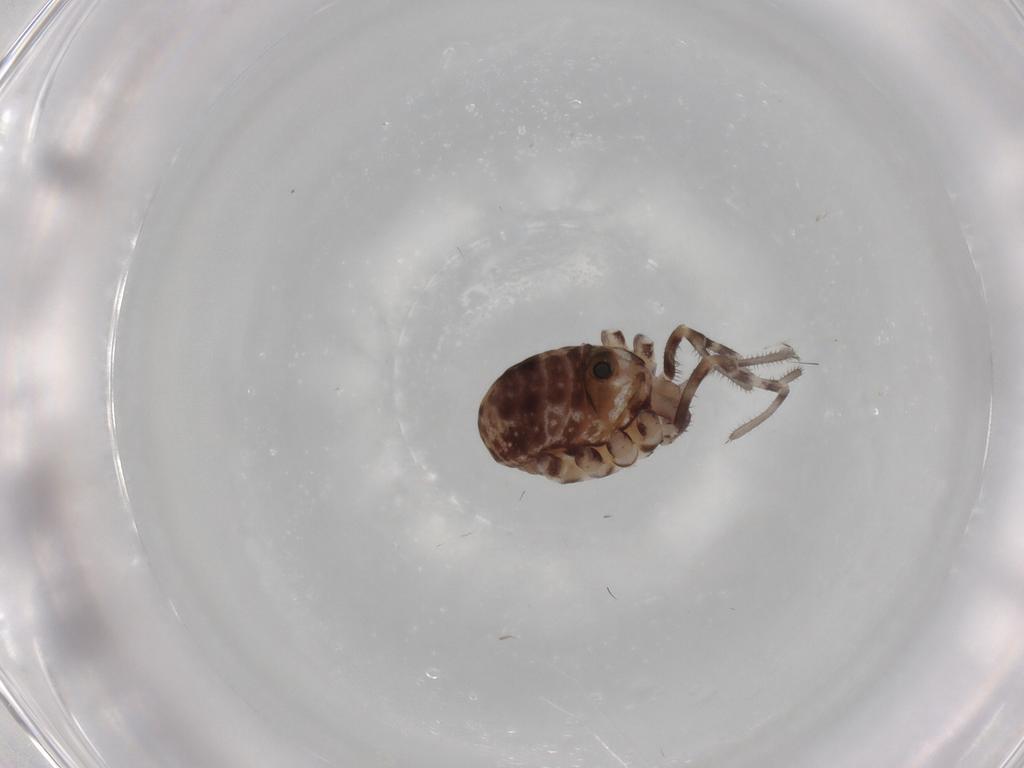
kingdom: Animalia
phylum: Arthropoda
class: Arachnida
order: Opiliones
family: Sclerosomatidae
